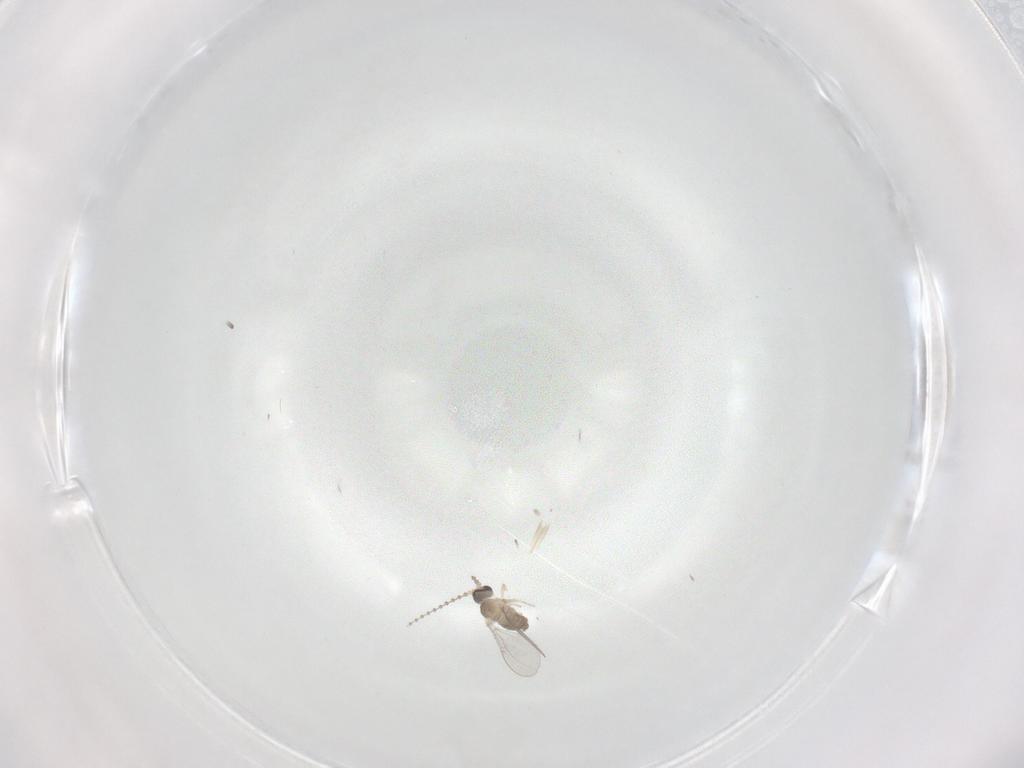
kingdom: Animalia
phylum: Arthropoda
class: Insecta
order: Diptera
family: Cecidomyiidae
